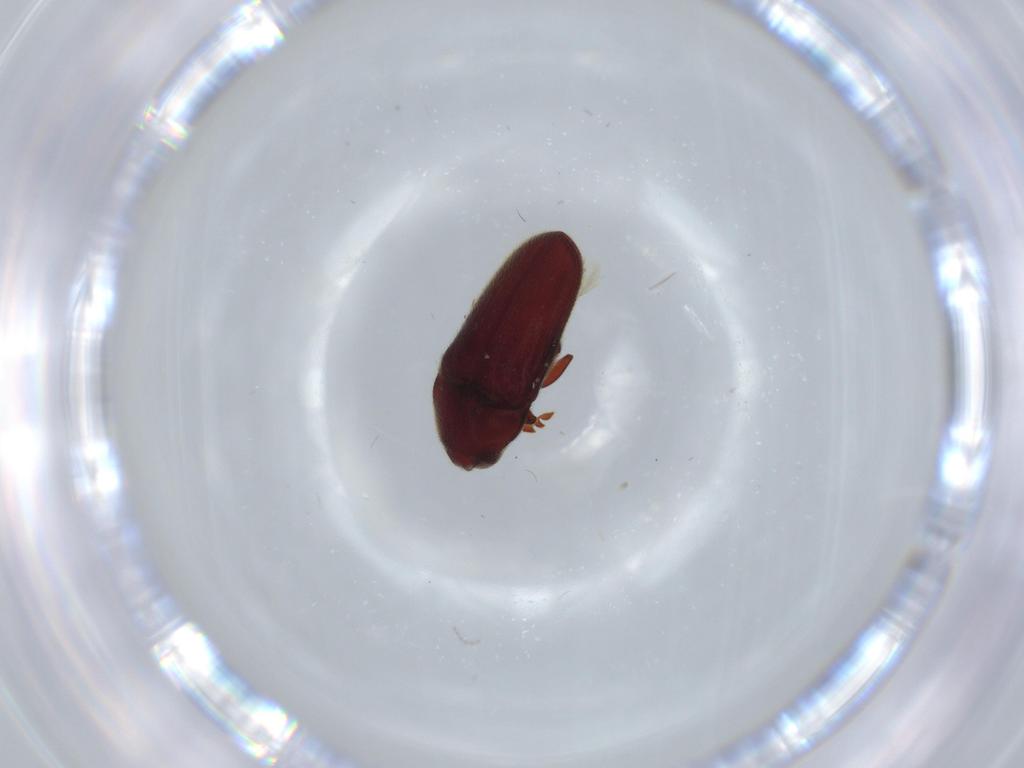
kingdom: Animalia
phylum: Arthropoda
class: Insecta
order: Coleoptera
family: Throscidae
